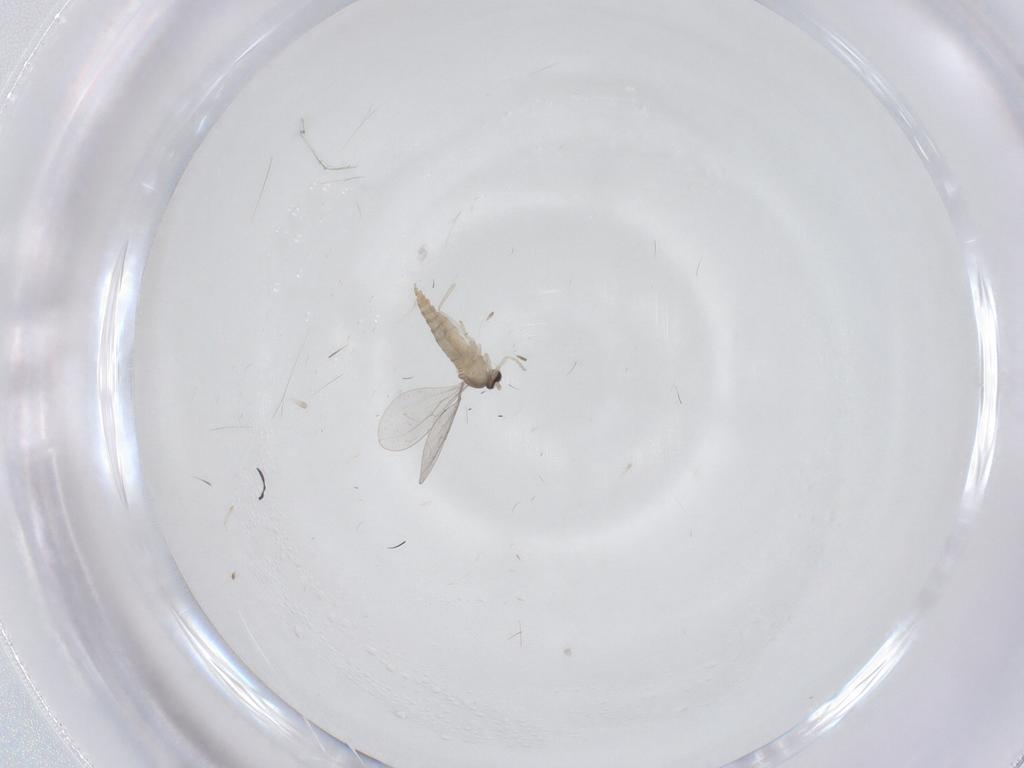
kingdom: Animalia
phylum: Arthropoda
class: Insecta
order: Diptera
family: Cecidomyiidae
